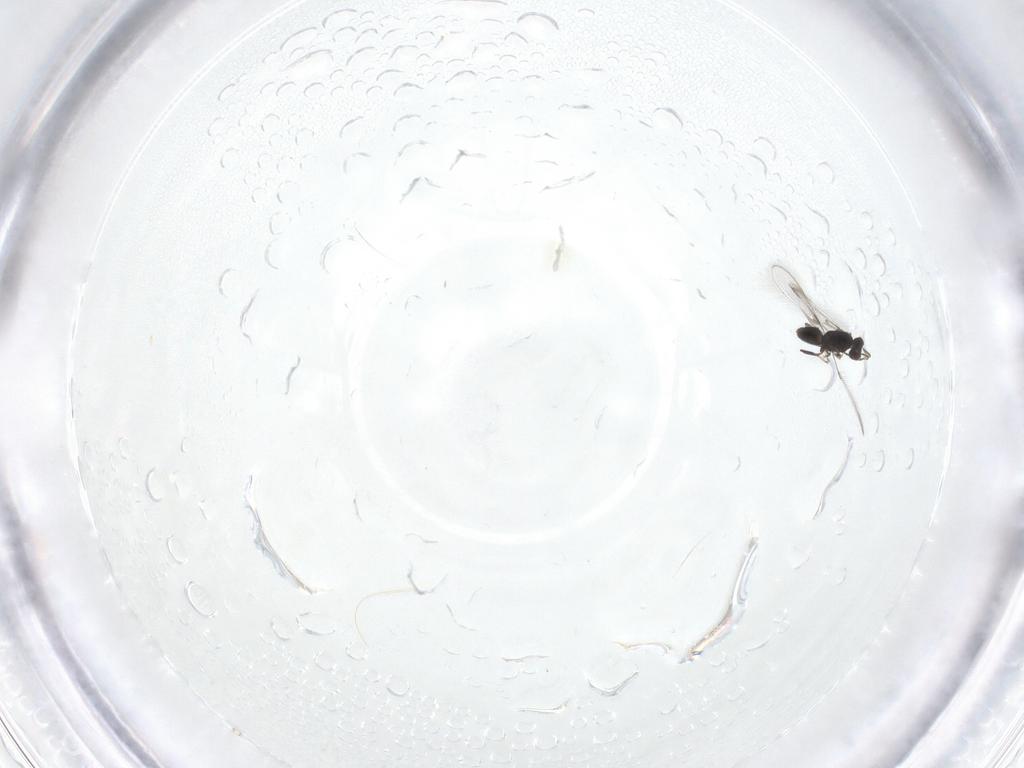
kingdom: Animalia
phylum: Arthropoda
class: Insecta
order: Hymenoptera
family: Mymaridae
